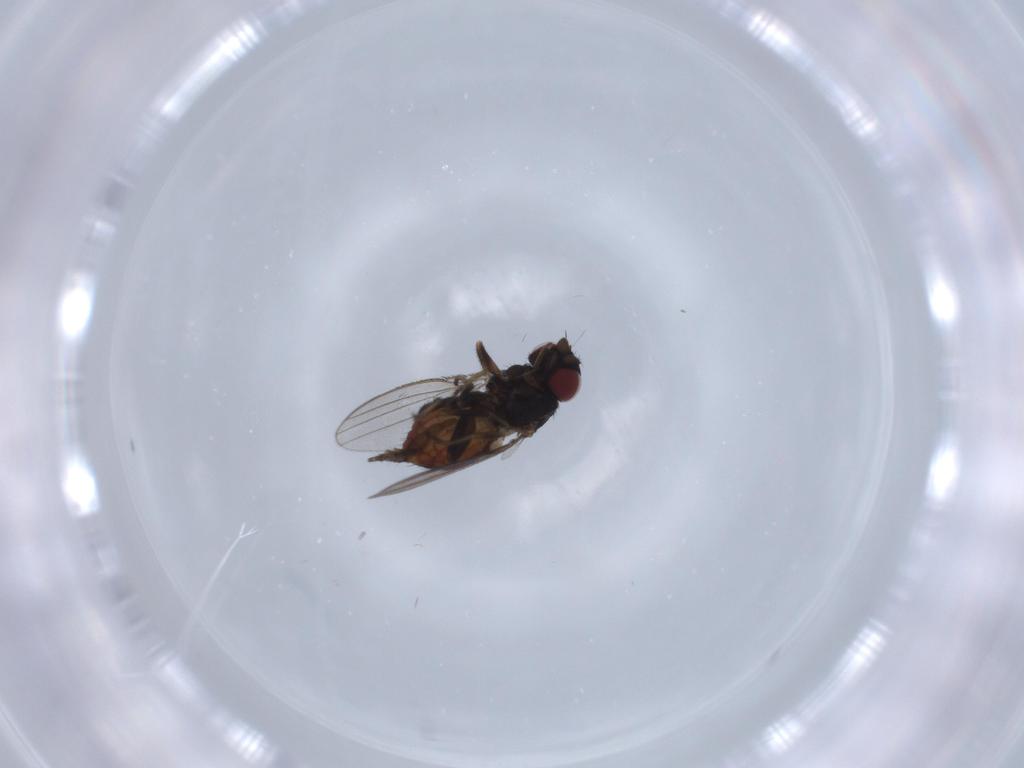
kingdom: Animalia
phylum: Arthropoda
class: Insecta
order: Diptera
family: Milichiidae
